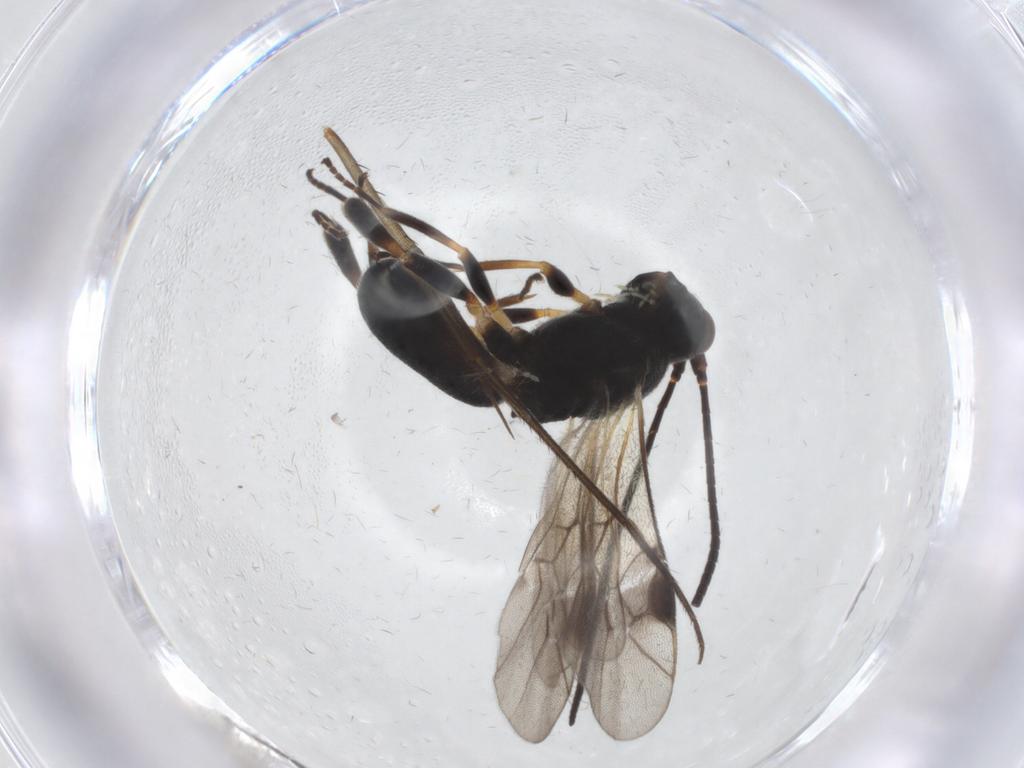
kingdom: Animalia
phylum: Arthropoda
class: Insecta
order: Hymenoptera
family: Braconidae
